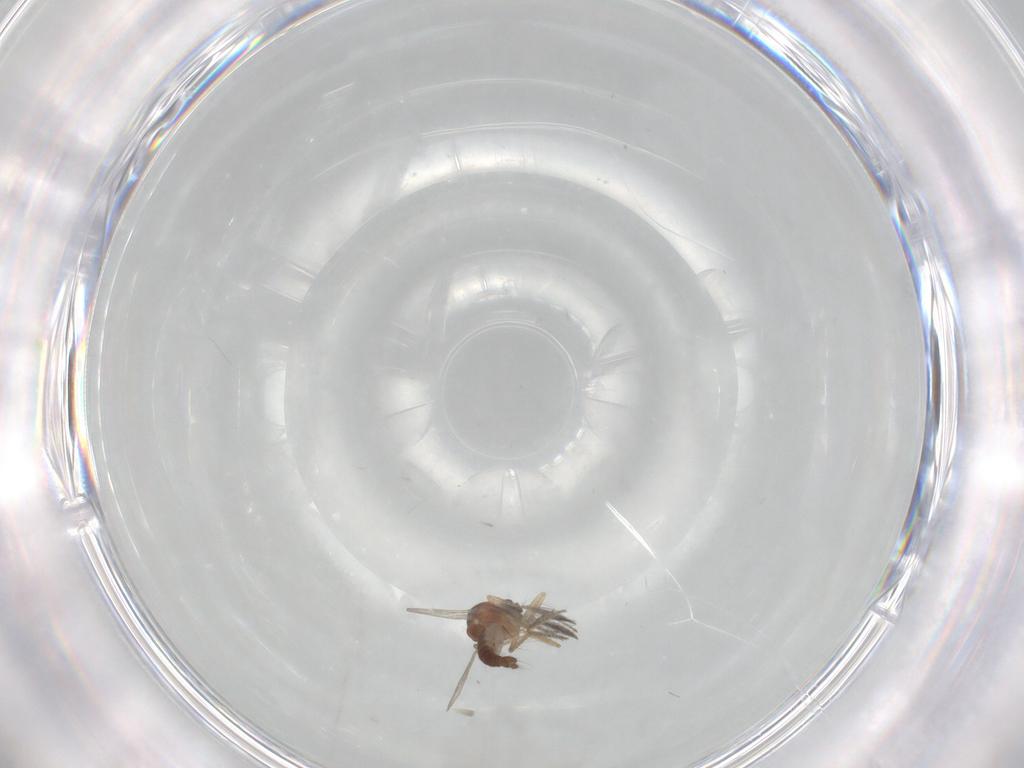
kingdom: Animalia
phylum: Arthropoda
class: Insecta
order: Diptera
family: Ceratopogonidae
